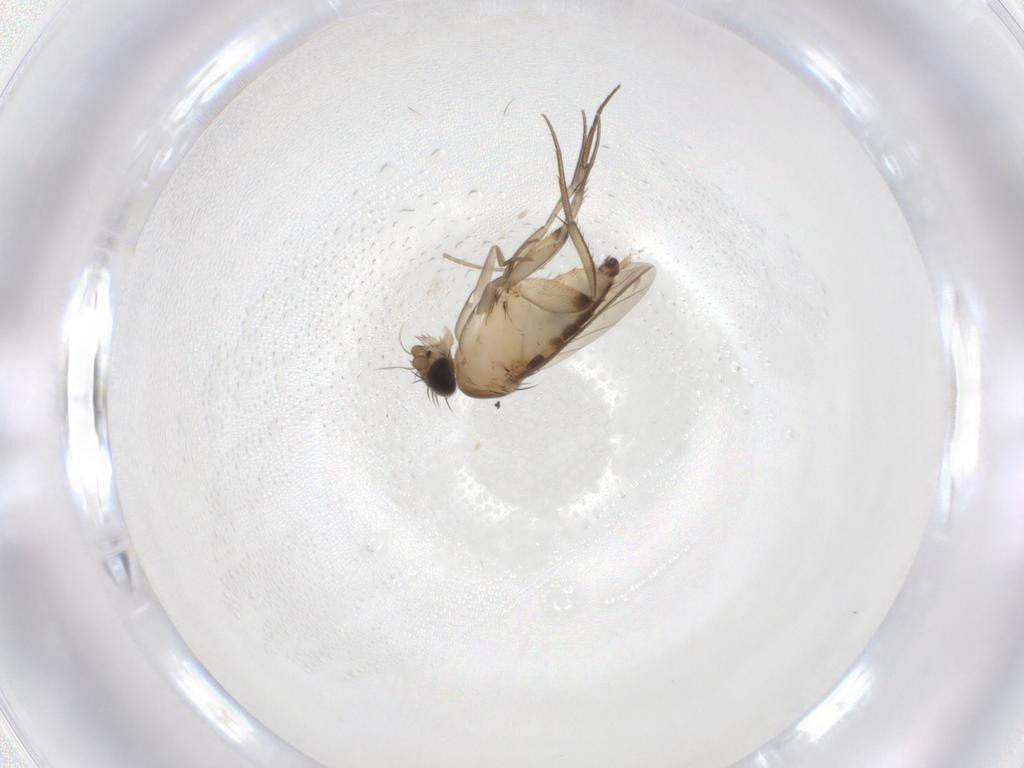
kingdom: Animalia
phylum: Arthropoda
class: Insecta
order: Diptera
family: Phoridae
